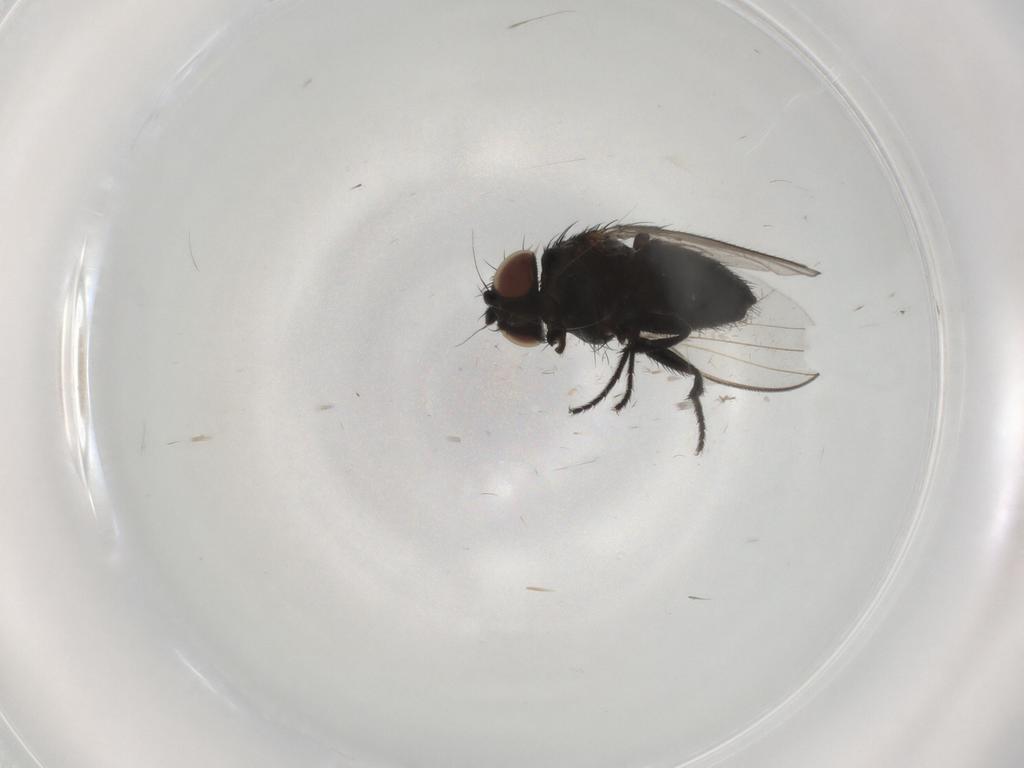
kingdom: Animalia
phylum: Arthropoda
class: Insecta
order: Diptera
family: Milichiidae
